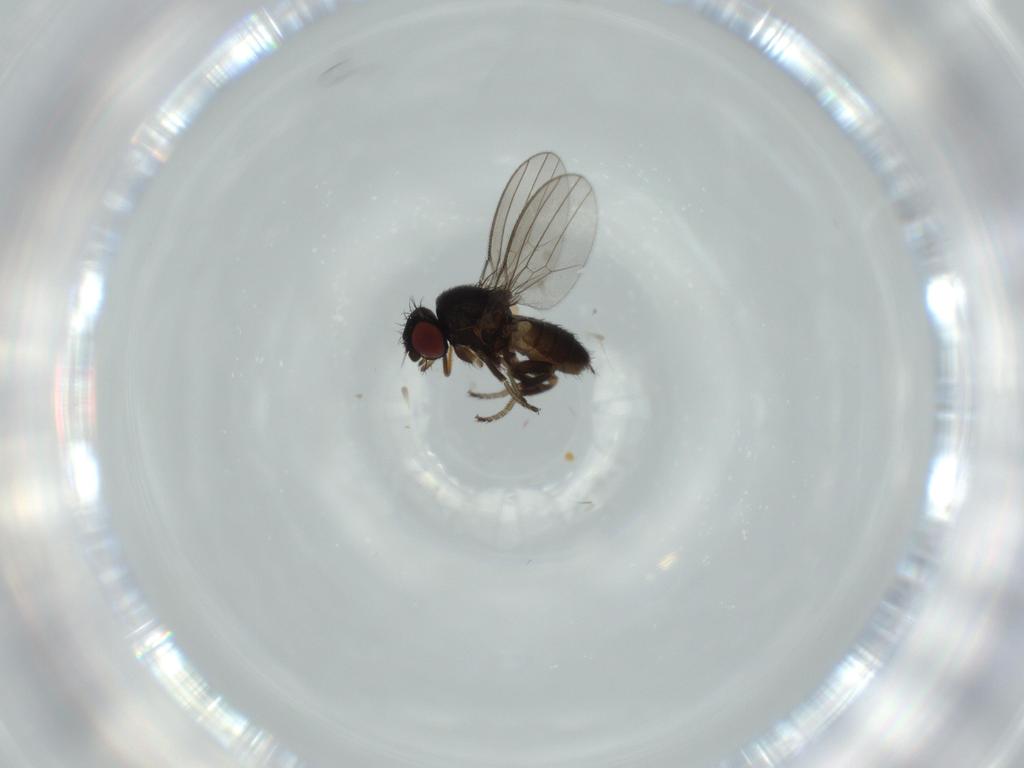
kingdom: Animalia
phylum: Arthropoda
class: Insecta
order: Diptera
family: Milichiidae
